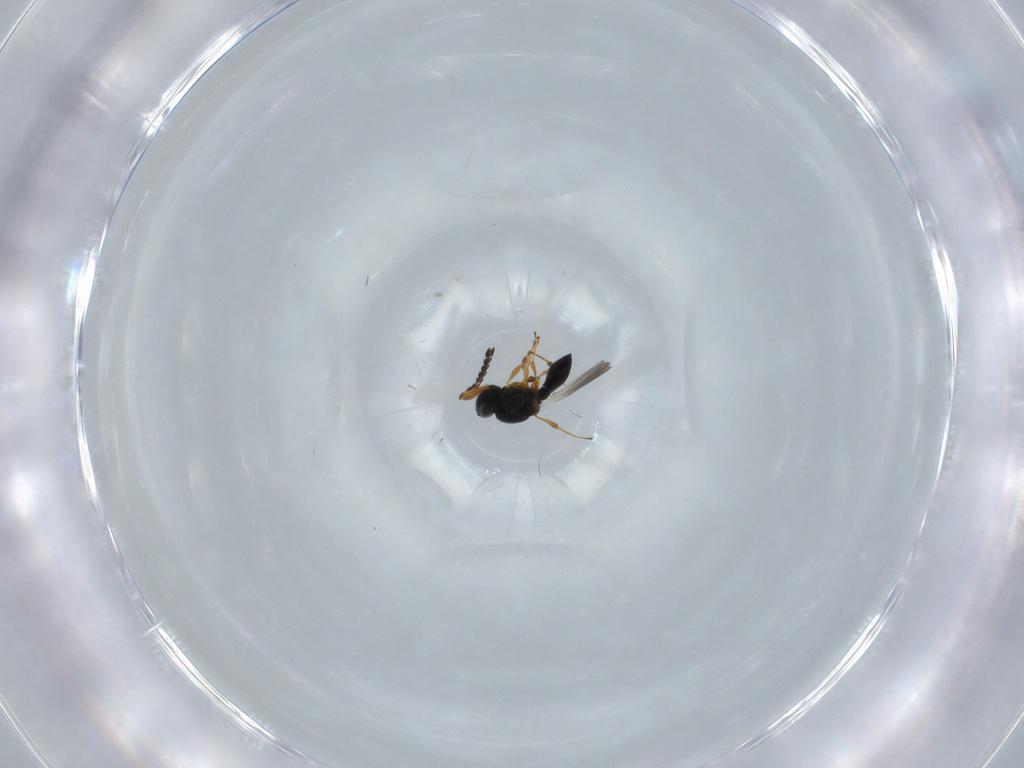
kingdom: Animalia
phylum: Arthropoda
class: Insecta
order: Hymenoptera
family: Platygastridae
